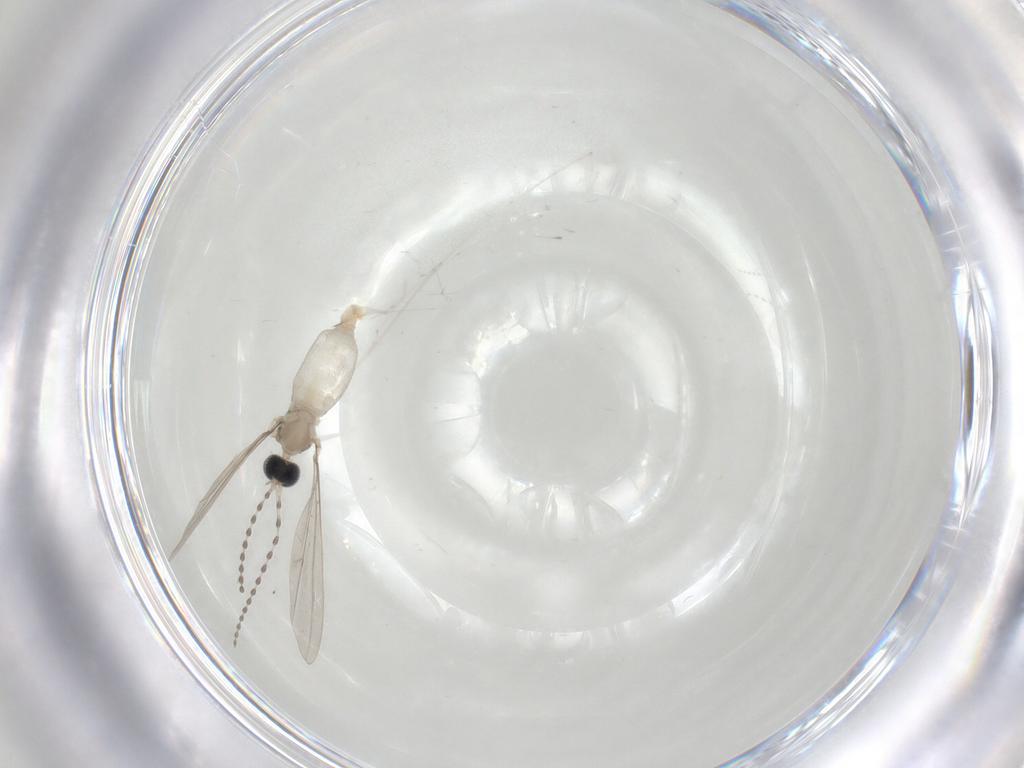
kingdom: Animalia
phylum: Arthropoda
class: Insecta
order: Diptera
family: Cecidomyiidae
